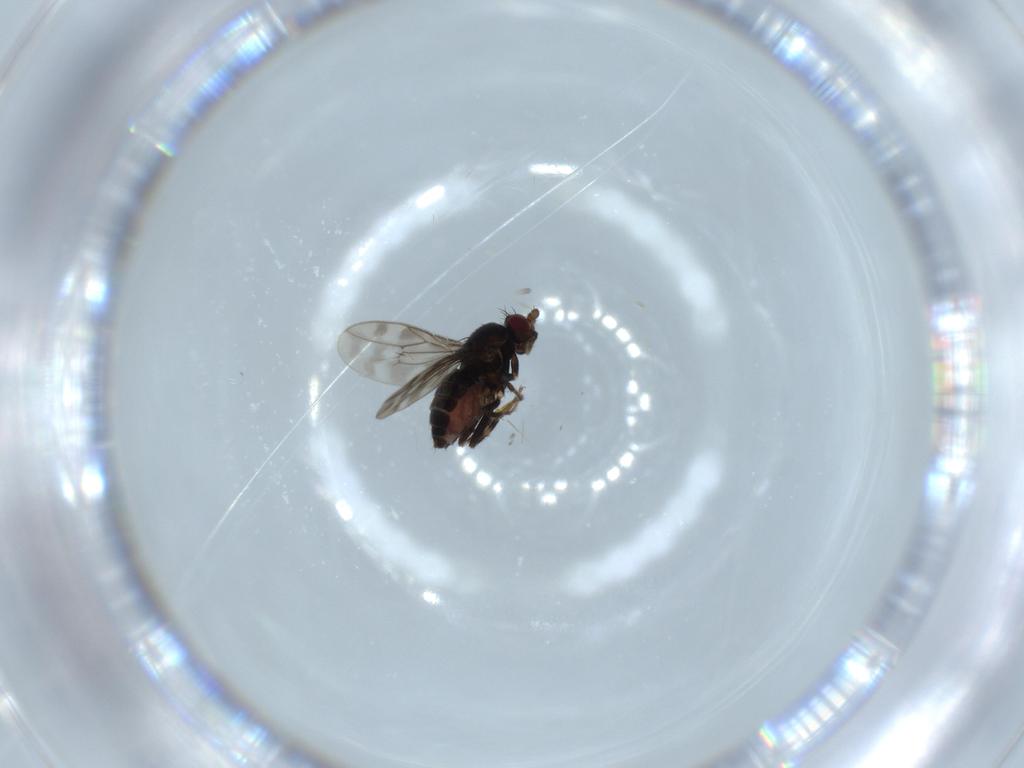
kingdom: Animalia
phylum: Arthropoda
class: Insecta
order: Diptera
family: Sphaeroceridae
